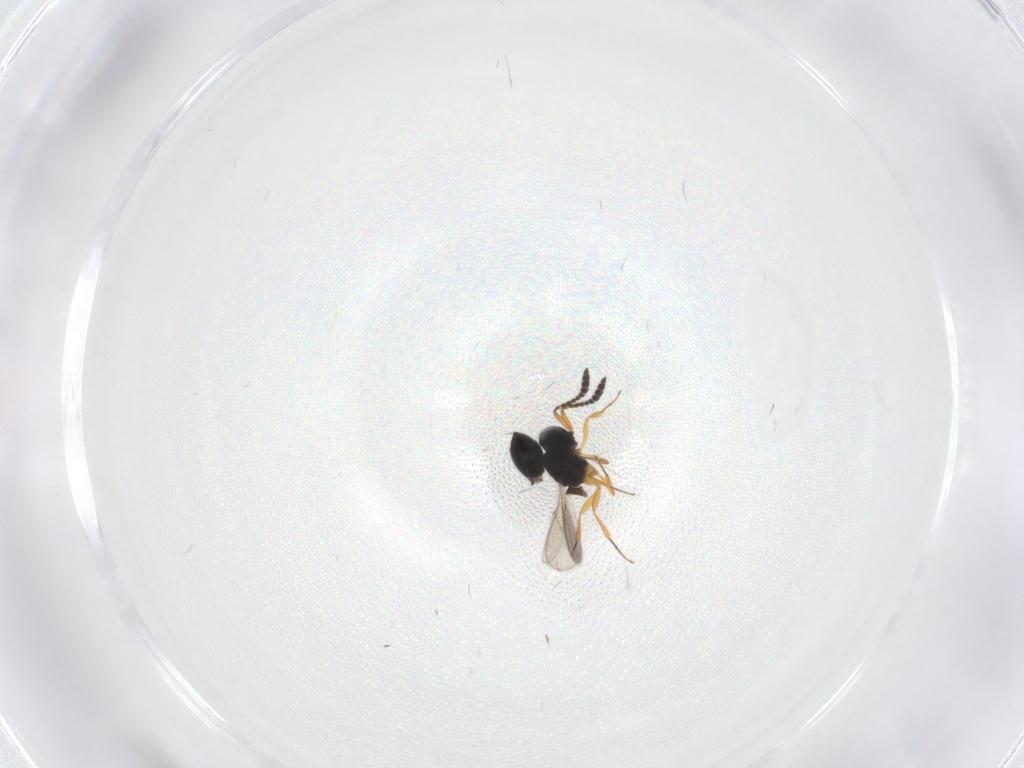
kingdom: Animalia
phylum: Arthropoda
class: Insecta
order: Hymenoptera
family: Scelionidae
